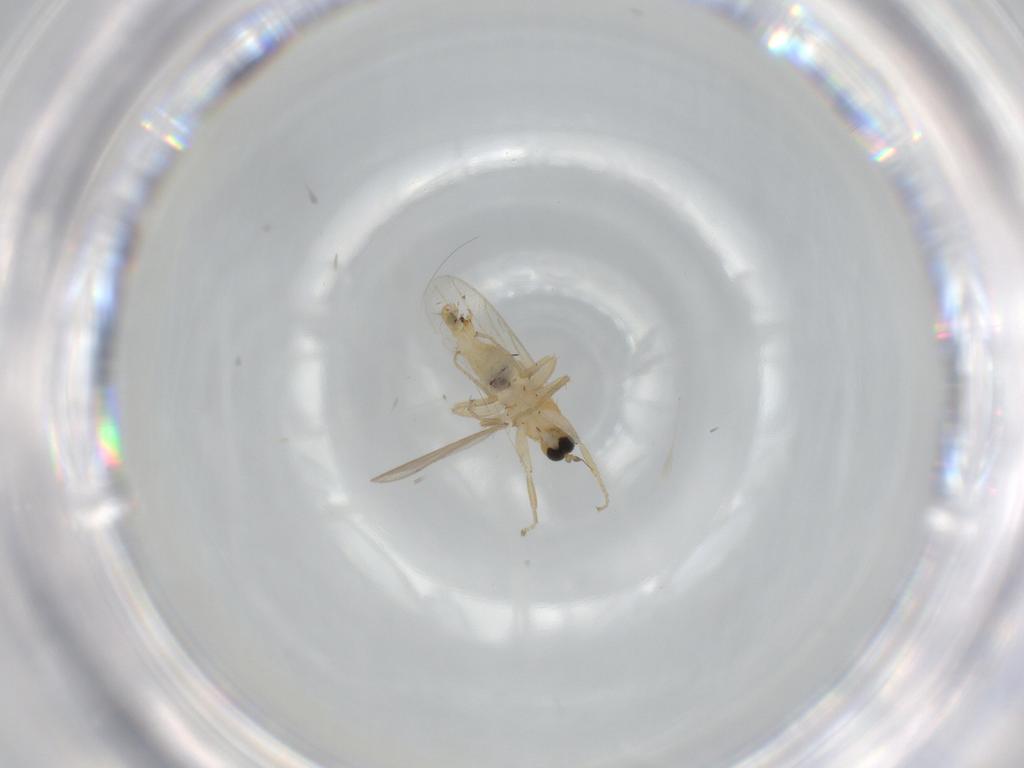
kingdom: Animalia
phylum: Arthropoda
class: Insecta
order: Diptera
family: Hybotidae
